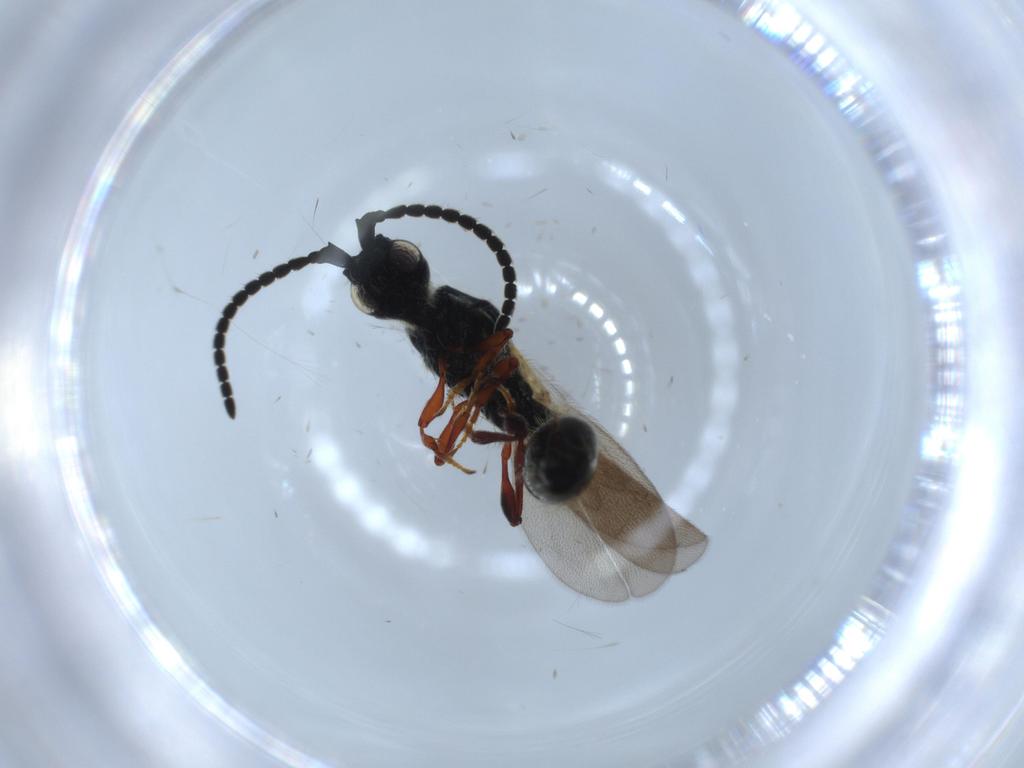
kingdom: Animalia
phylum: Arthropoda
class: Insecta
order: Hymenoptera
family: Diapriidae
